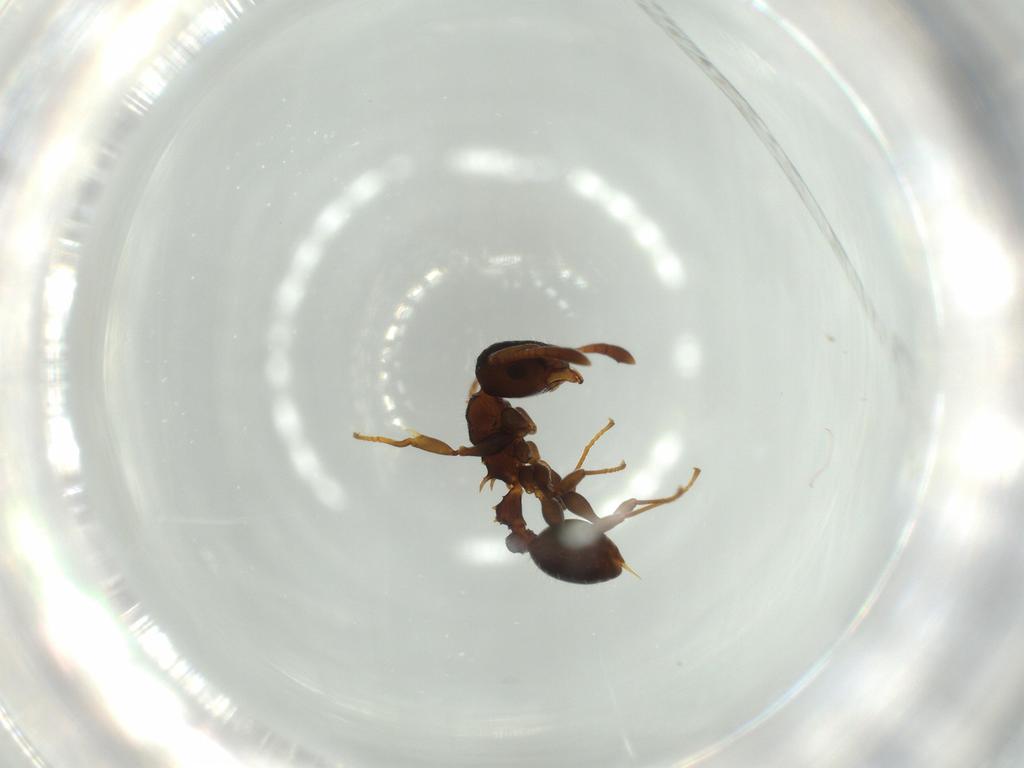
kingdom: Animalia
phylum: Arthropoda
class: Insecta
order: Hymenoptera
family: Formicidae
